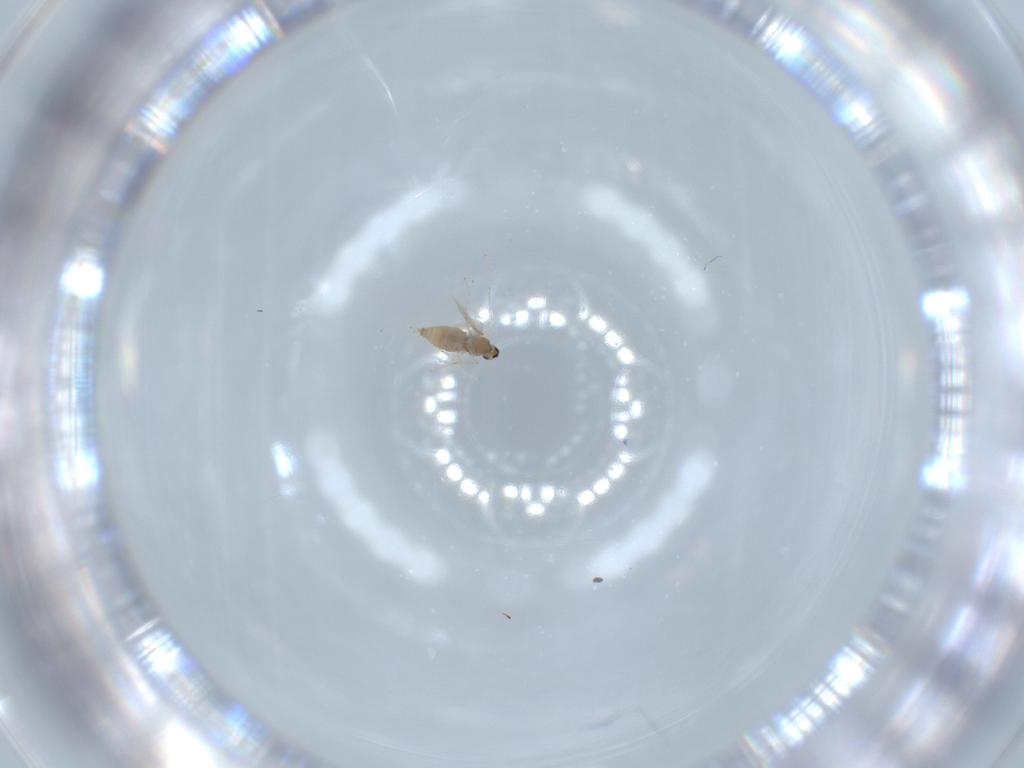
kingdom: Animalia
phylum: Arthropoda
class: Insecta
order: Diptera
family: Cecidomyiidae
